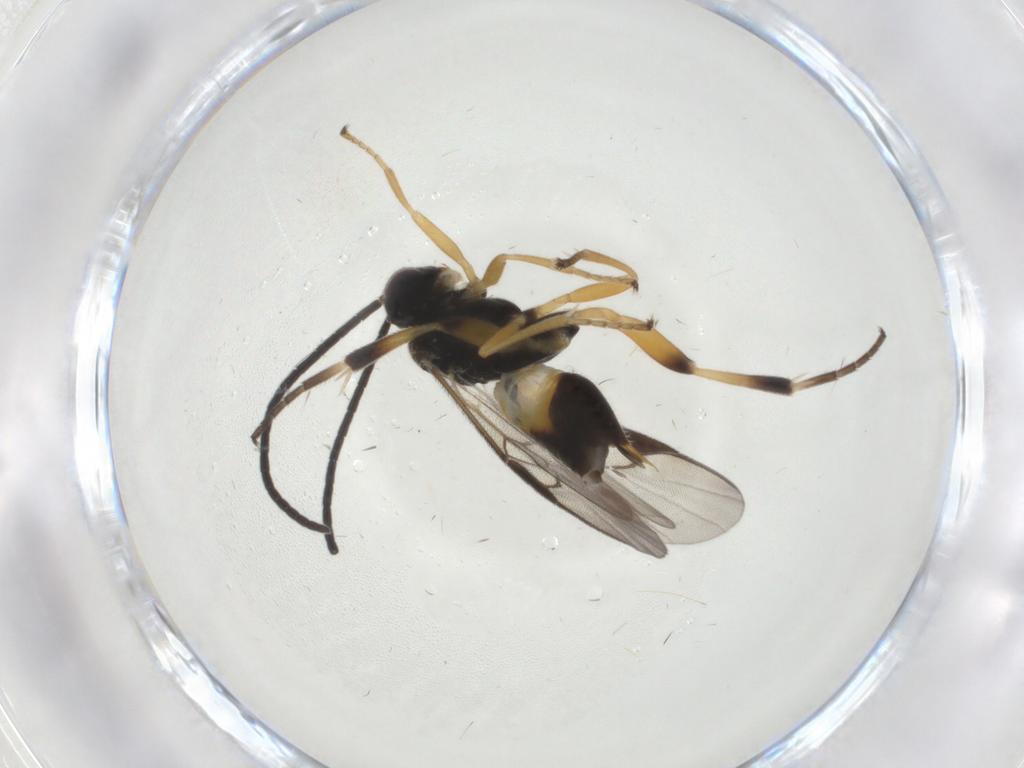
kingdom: Animalia
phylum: Arthropoda
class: Insecta
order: Hymenoptera
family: Braconidae
